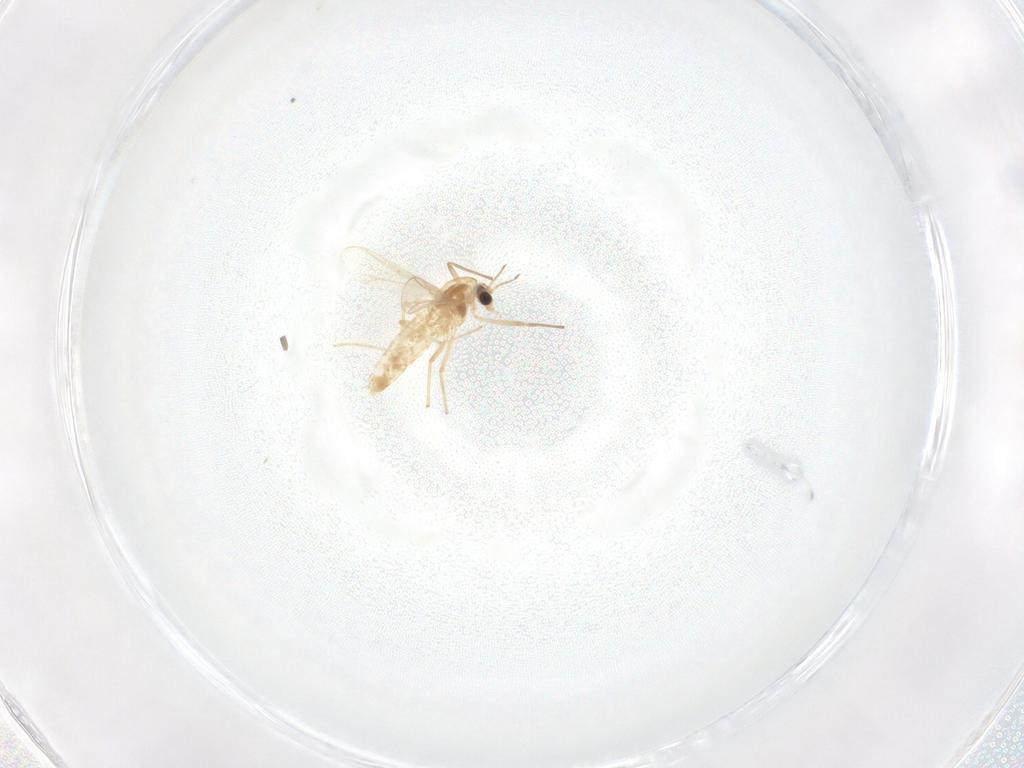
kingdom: Animalia
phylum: Arthropoda
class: Insecta
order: Diptera
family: Chironomidae
